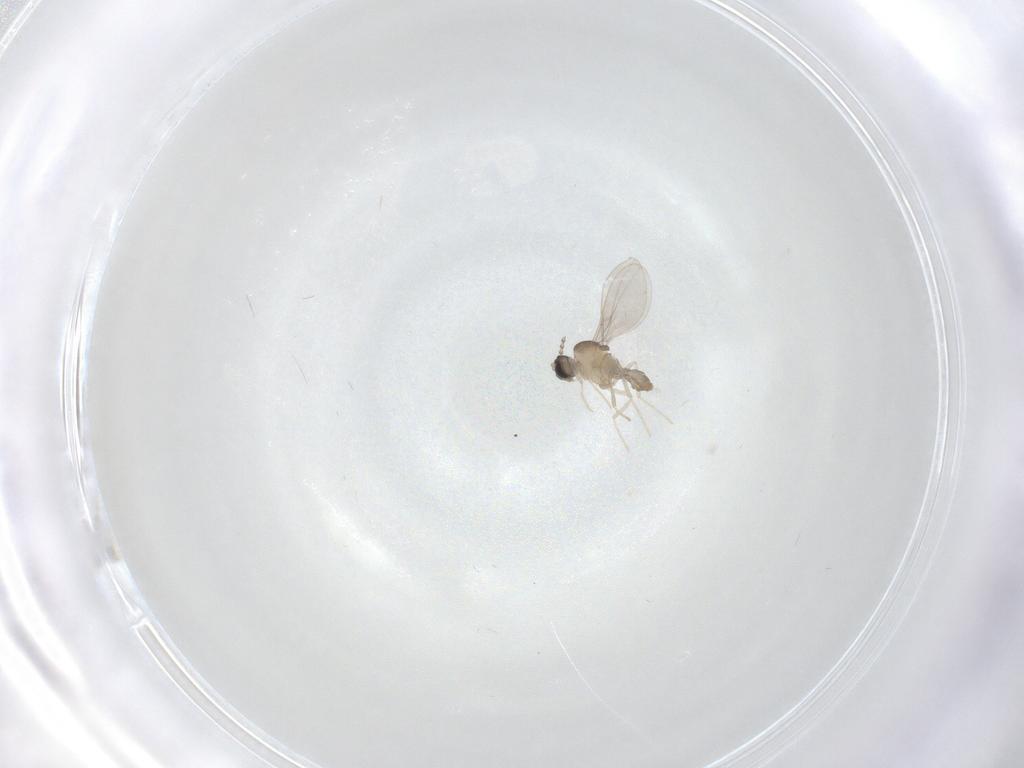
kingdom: Animalia
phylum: Arthropoda
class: Insecta
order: Diptera
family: Cecidomyiidae
